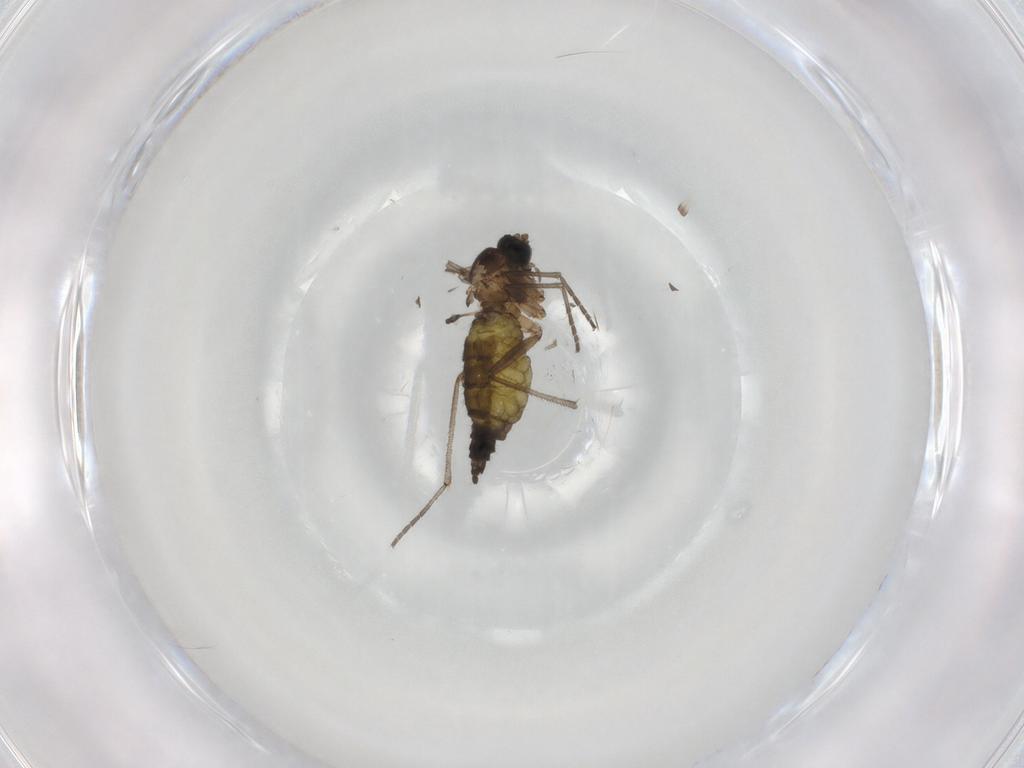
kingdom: Animalia
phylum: Arthropoda
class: Insecta
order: Diptera
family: Sciaridae
